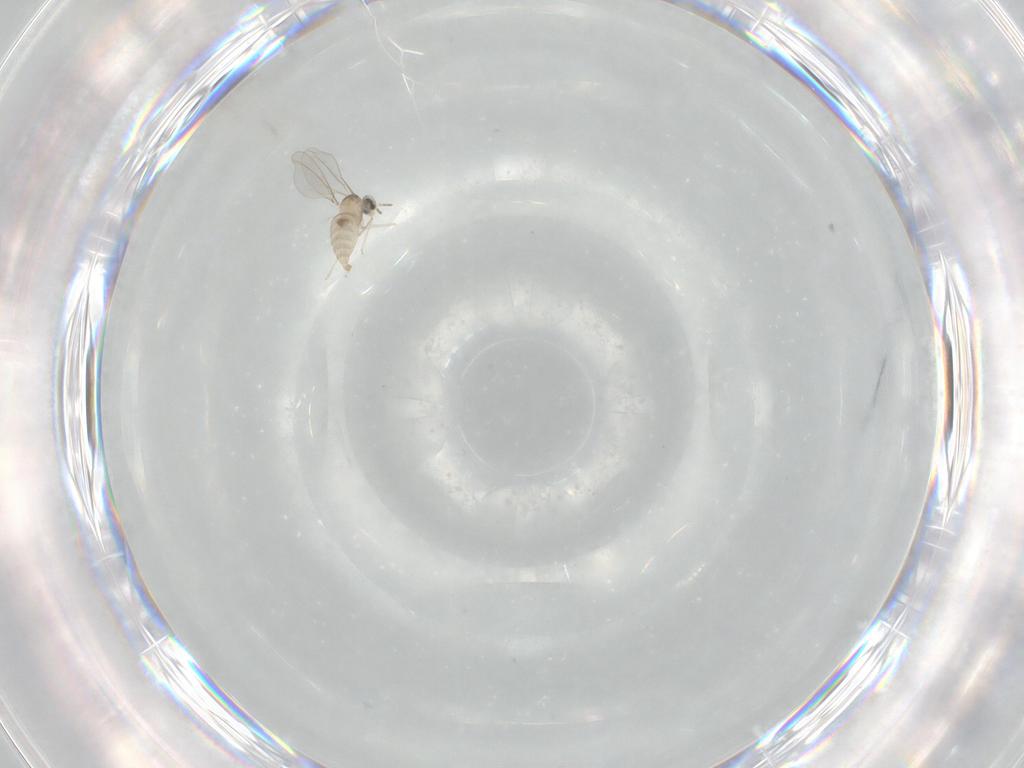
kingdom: Animalia
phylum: Arthropoda
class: Insecta
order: Diptera
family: Cecidomyiidae
